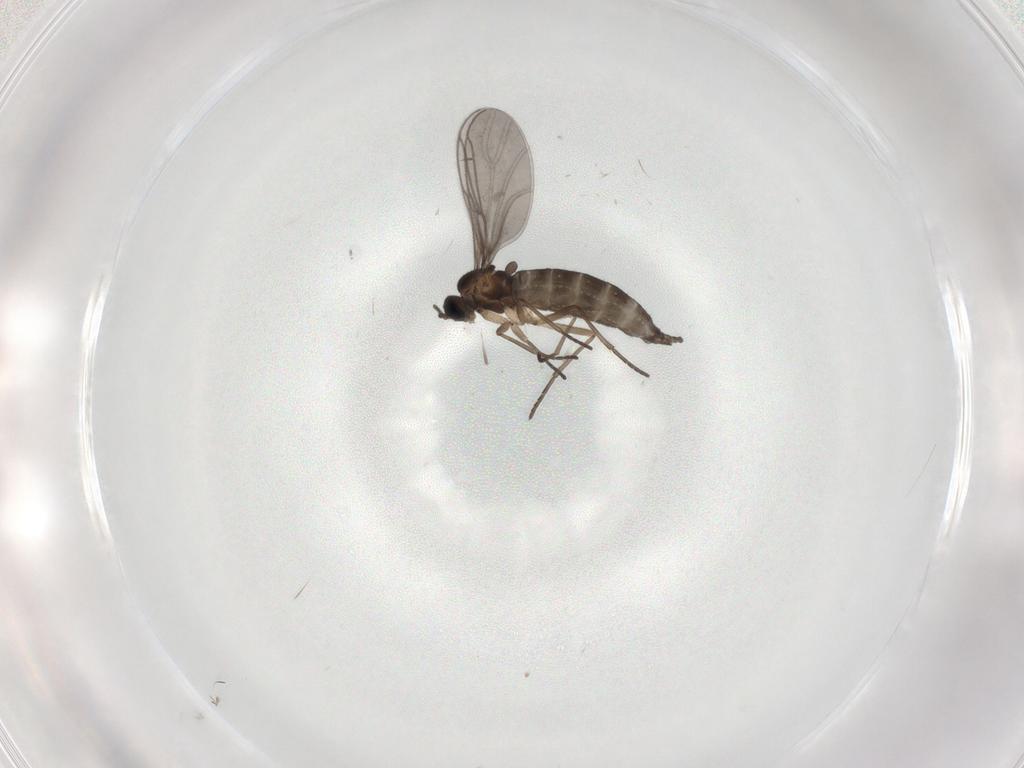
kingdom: Animalia
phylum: Arthropoda
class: Insecta
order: Diptera
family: Sciaridae
